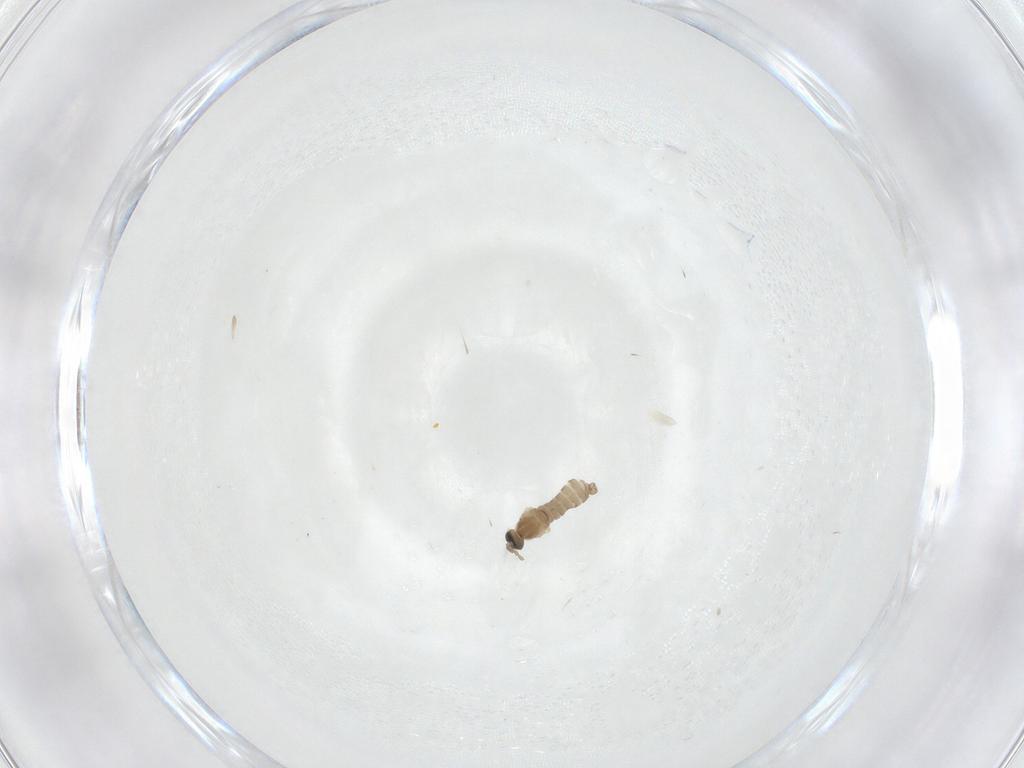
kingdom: Animalia
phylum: Arthropoda
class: Insecta
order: Diptera
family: Cecidomyiidae
